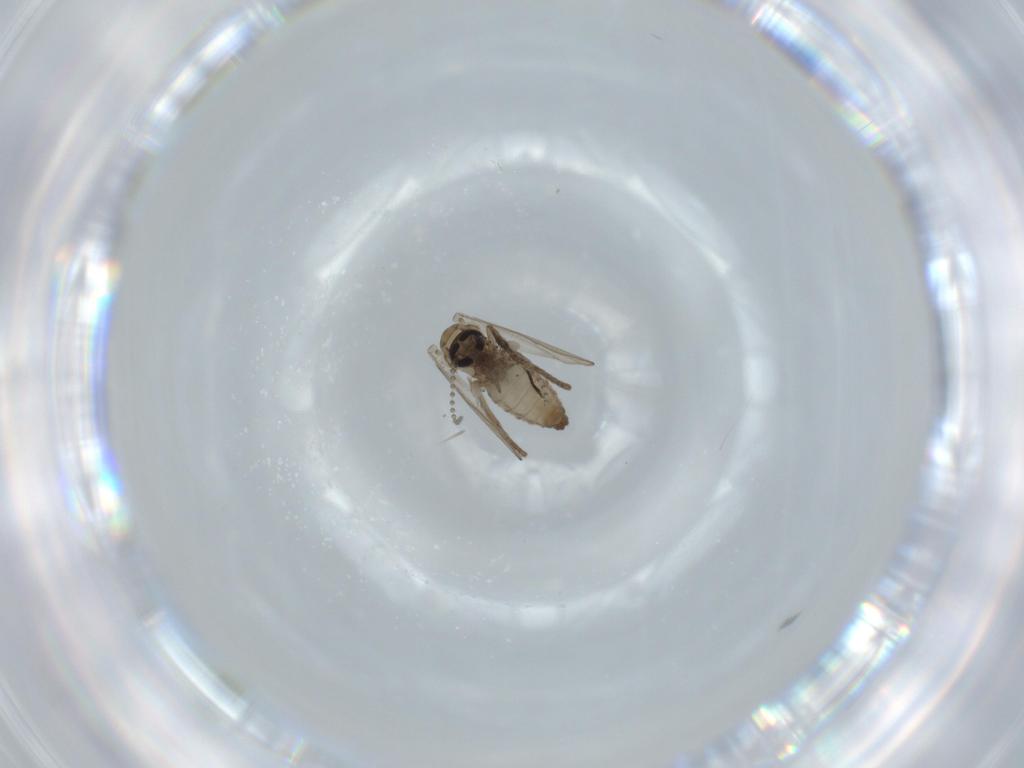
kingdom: Animalia
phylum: Arthropoda
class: Insecta
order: Diptera
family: Psychodidae
